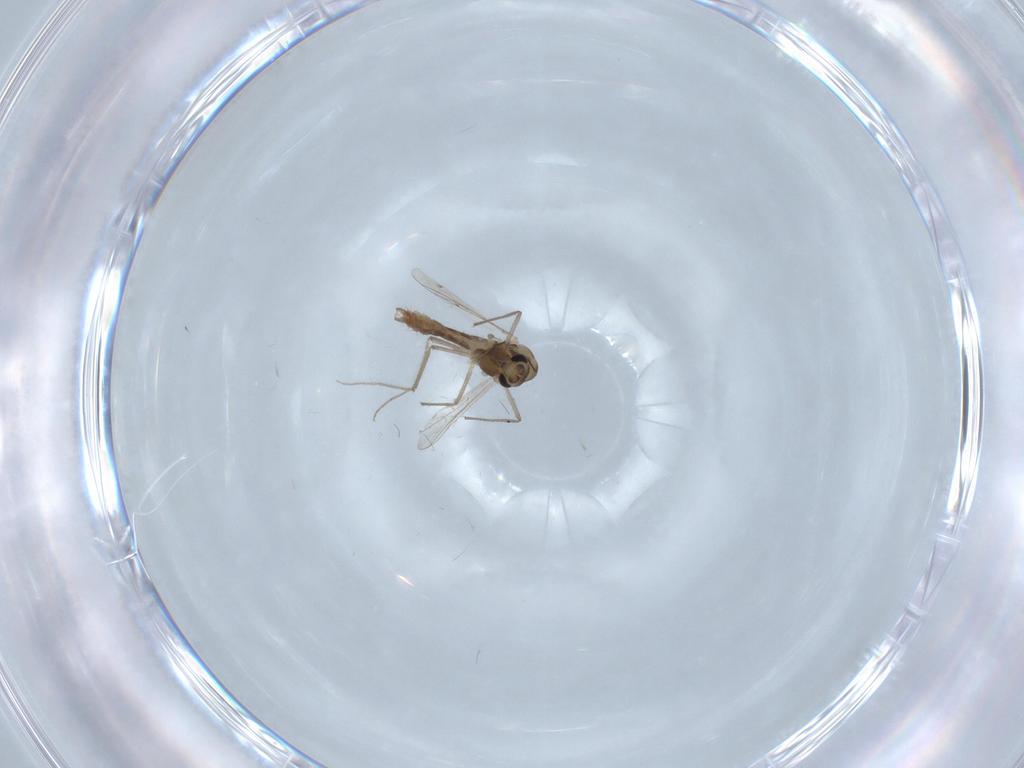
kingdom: Animalia
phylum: Arthropoda
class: Insecta
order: Diptera
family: Chironomidae
